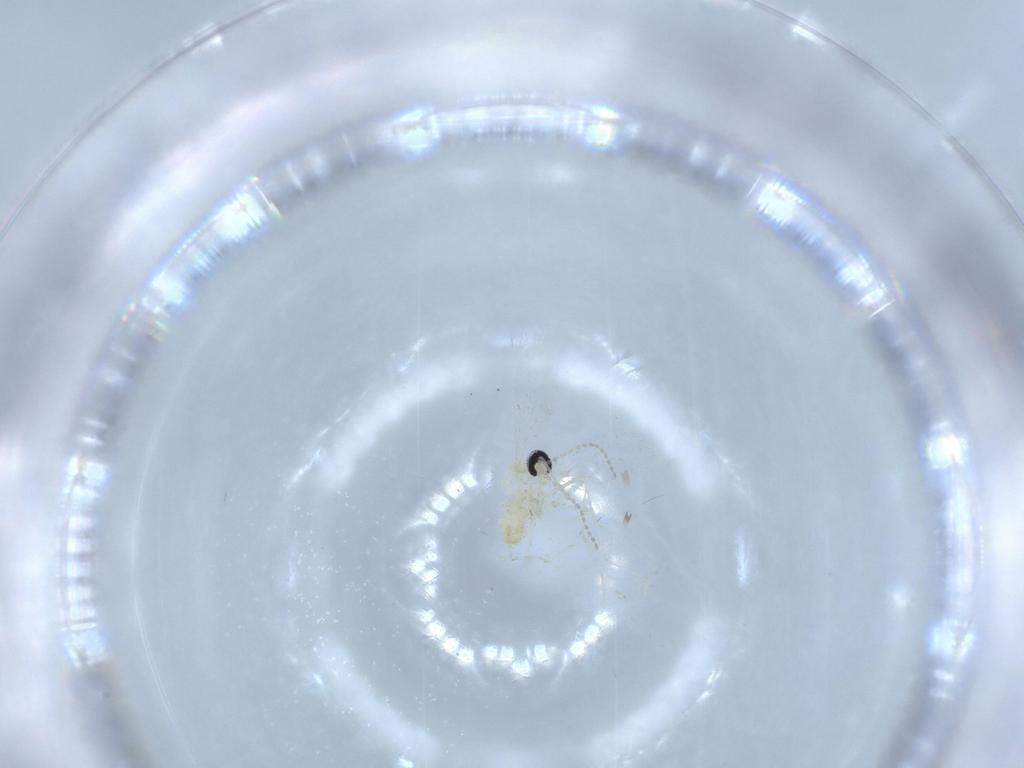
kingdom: Animalia
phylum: Arthropoda
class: Insecta
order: Diptera
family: Cecidomyiidae
